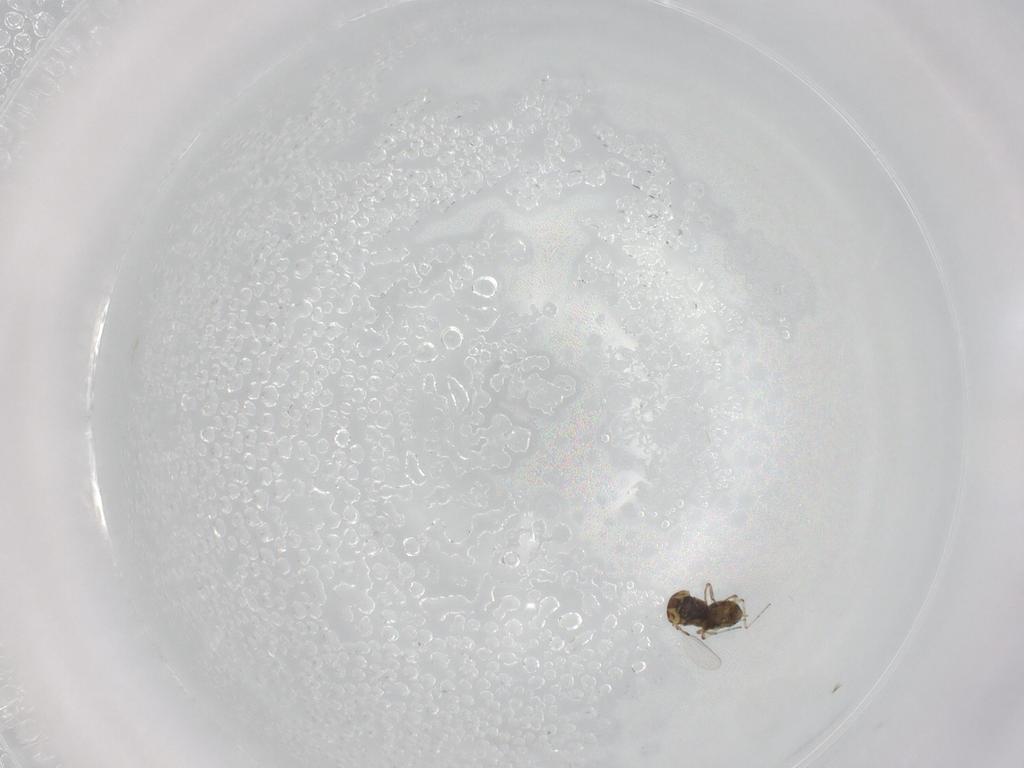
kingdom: Animalia
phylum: Arthropoda
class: Insecta
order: Diptera
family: Ceratopogonidae
